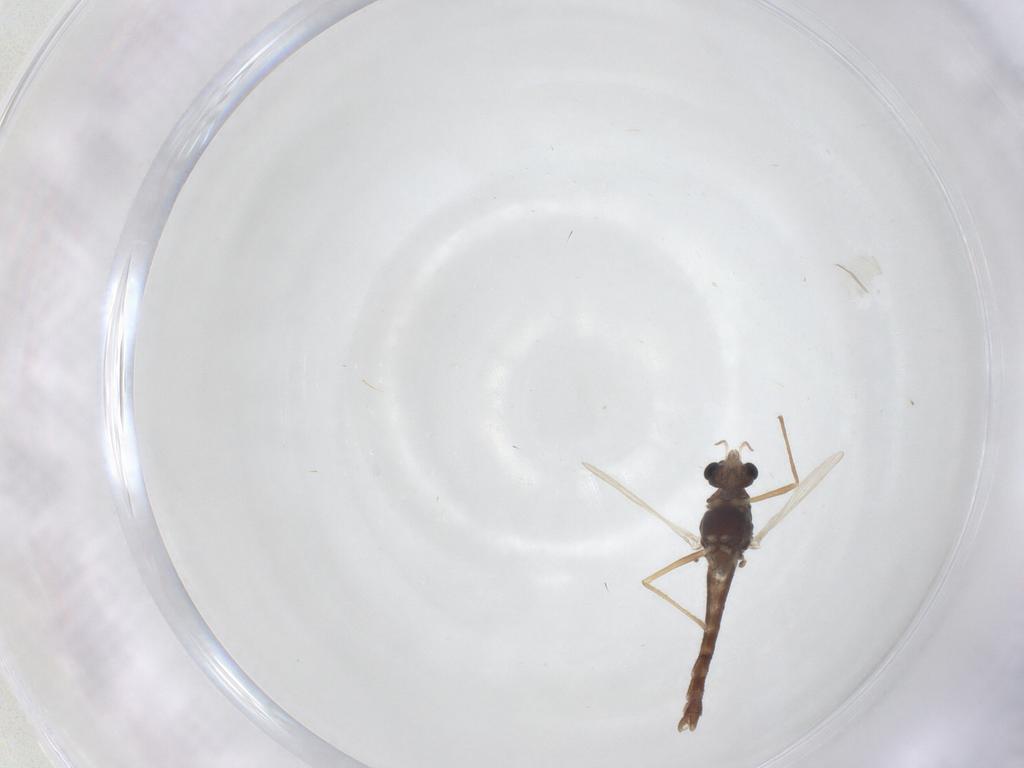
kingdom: Animalia
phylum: Arthropoda
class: Insecta
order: Diptera
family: Chironomidae
